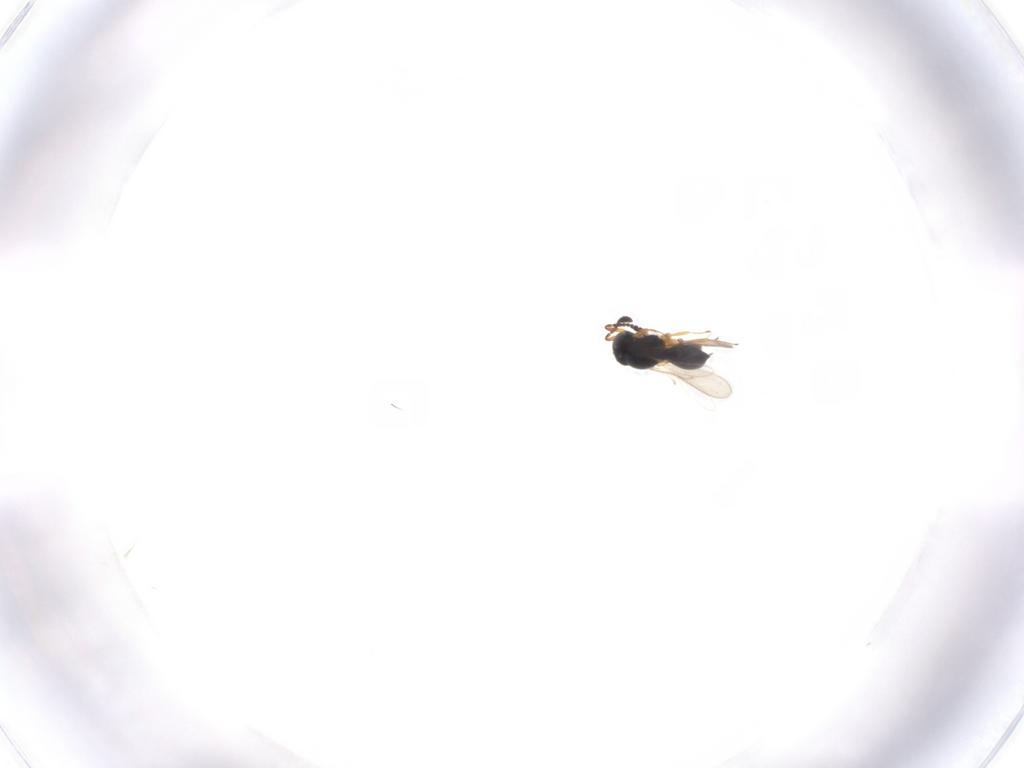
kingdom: Animalia
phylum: Arthropoda
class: Insecta
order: Hymenoptera
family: Scelionidae
